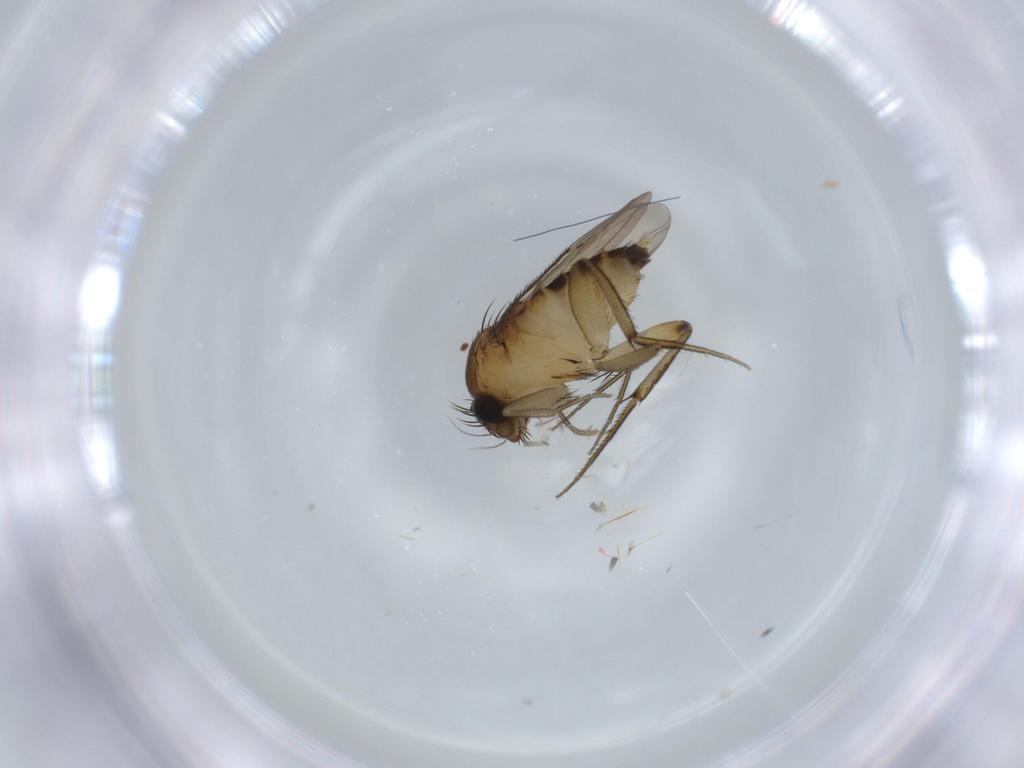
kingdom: Animalia
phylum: Arthropoda
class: Insecta
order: Diptera
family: Phoridae
